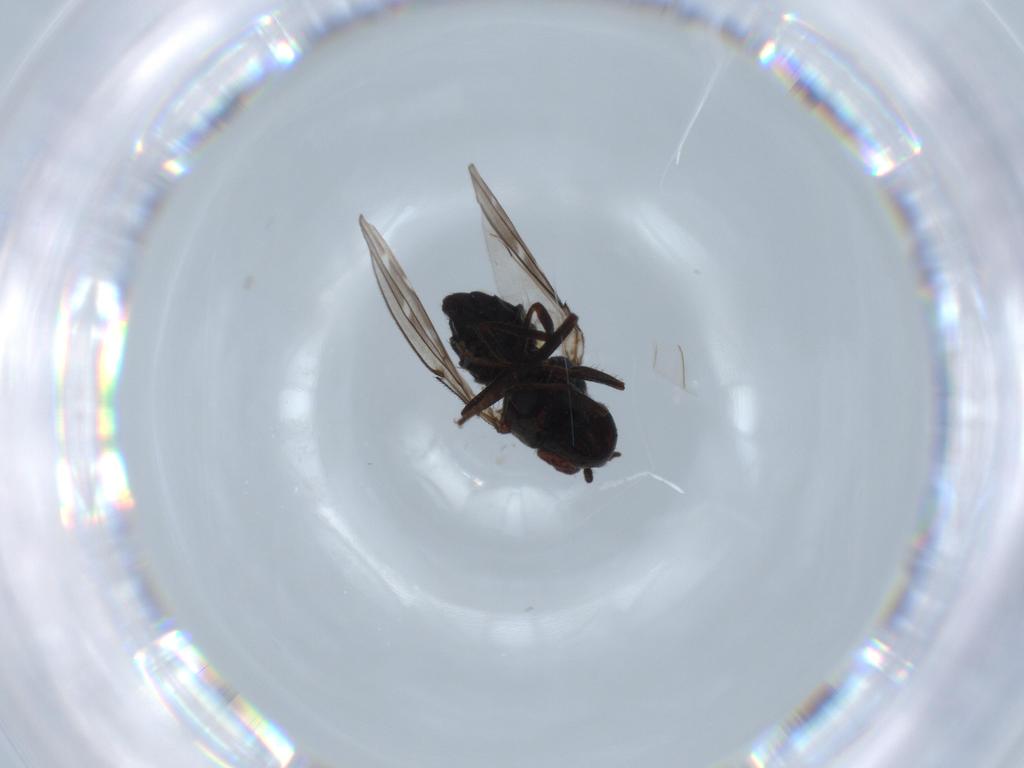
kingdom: Animalia
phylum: Arthropoda
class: Insecta
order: Diptera
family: Ephydridae
